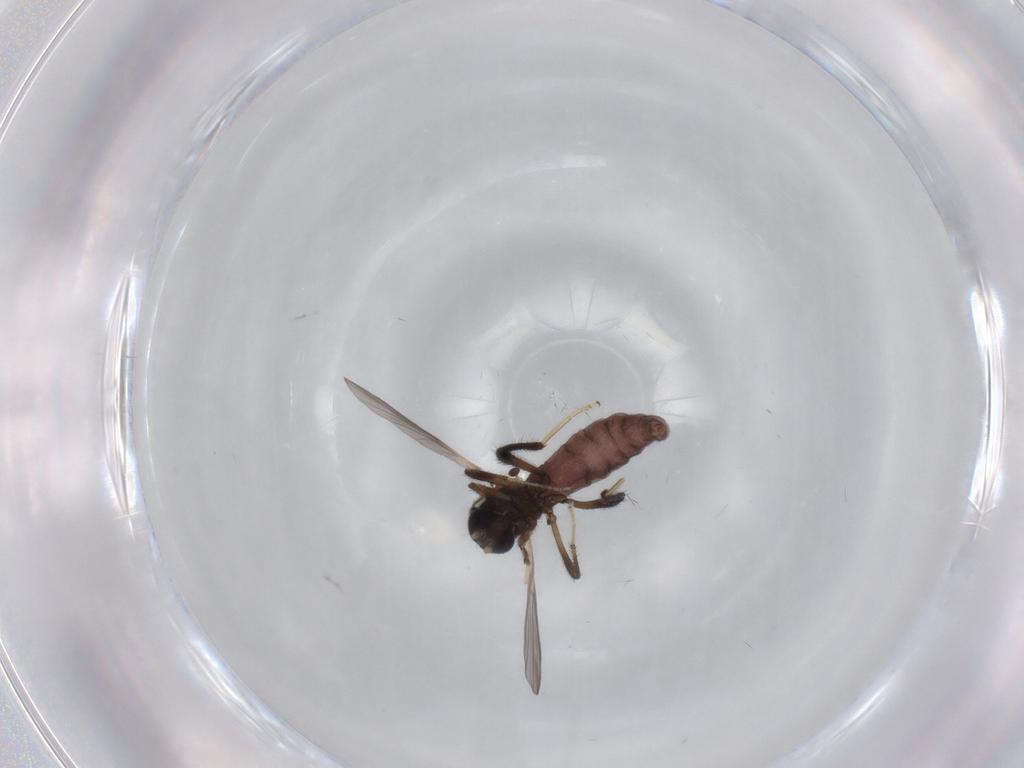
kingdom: Animalia
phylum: Arthropoda
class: Insecta
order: Diptera
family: Ceratopogonidae
